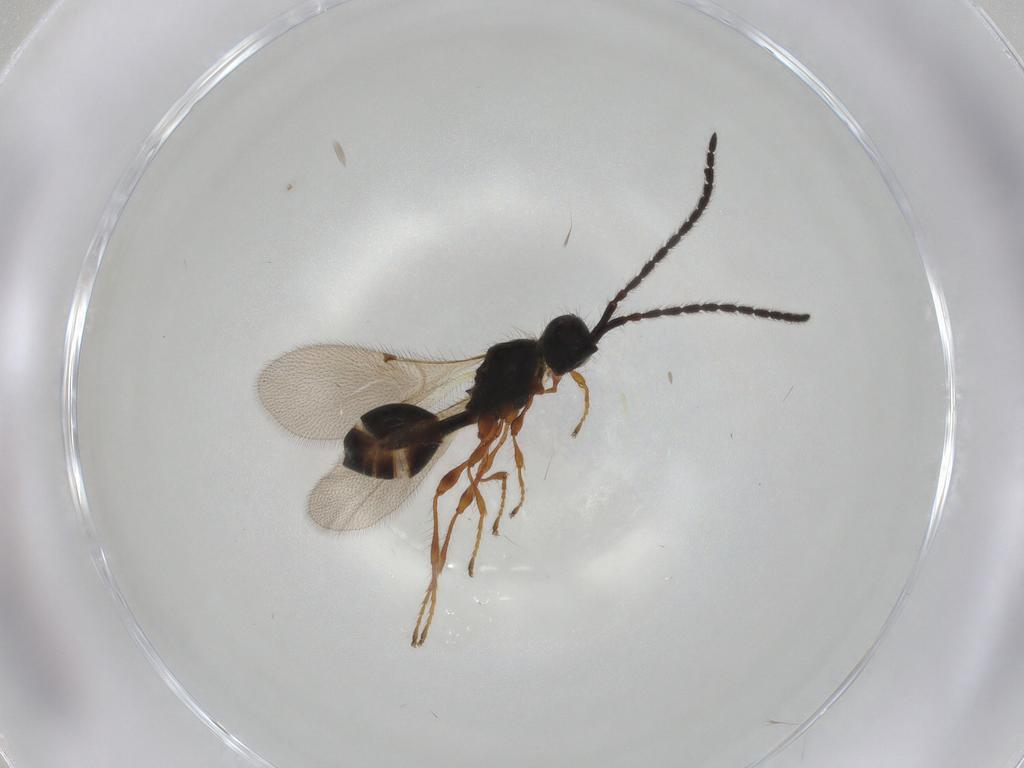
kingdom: Animalia
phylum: Arthropoda
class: Insecta
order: Hymenoptera
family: Diapriidae
